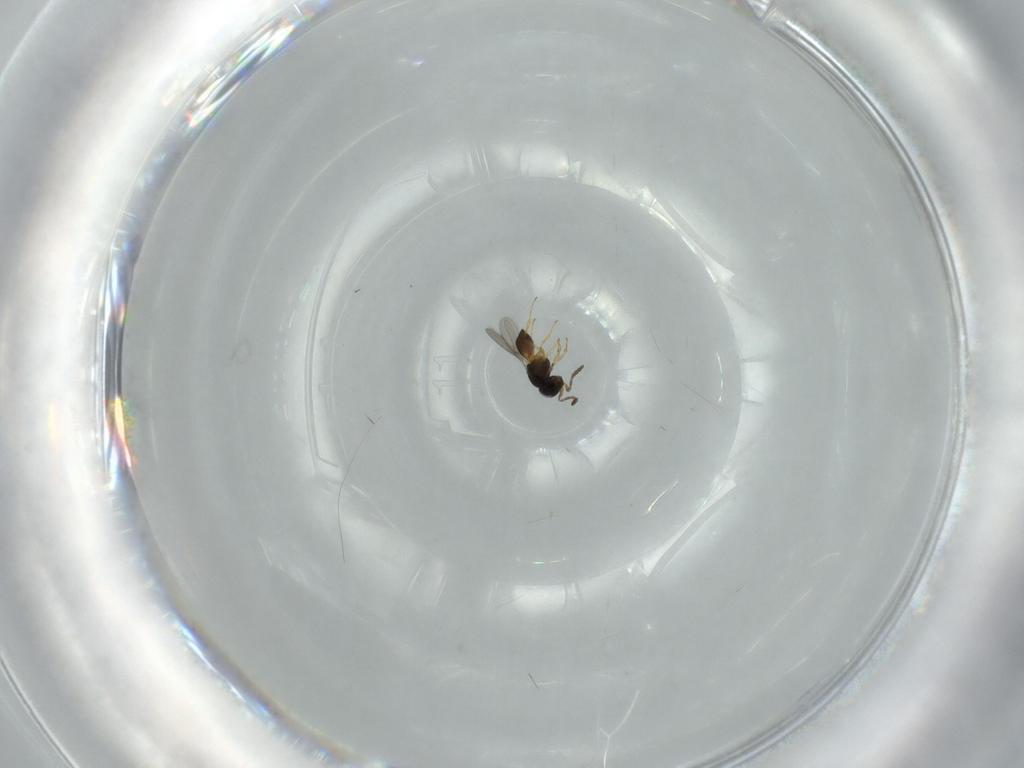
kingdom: Animalia
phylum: Arthropoda
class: Insecta
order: Hymenoptera
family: Scelionidae
